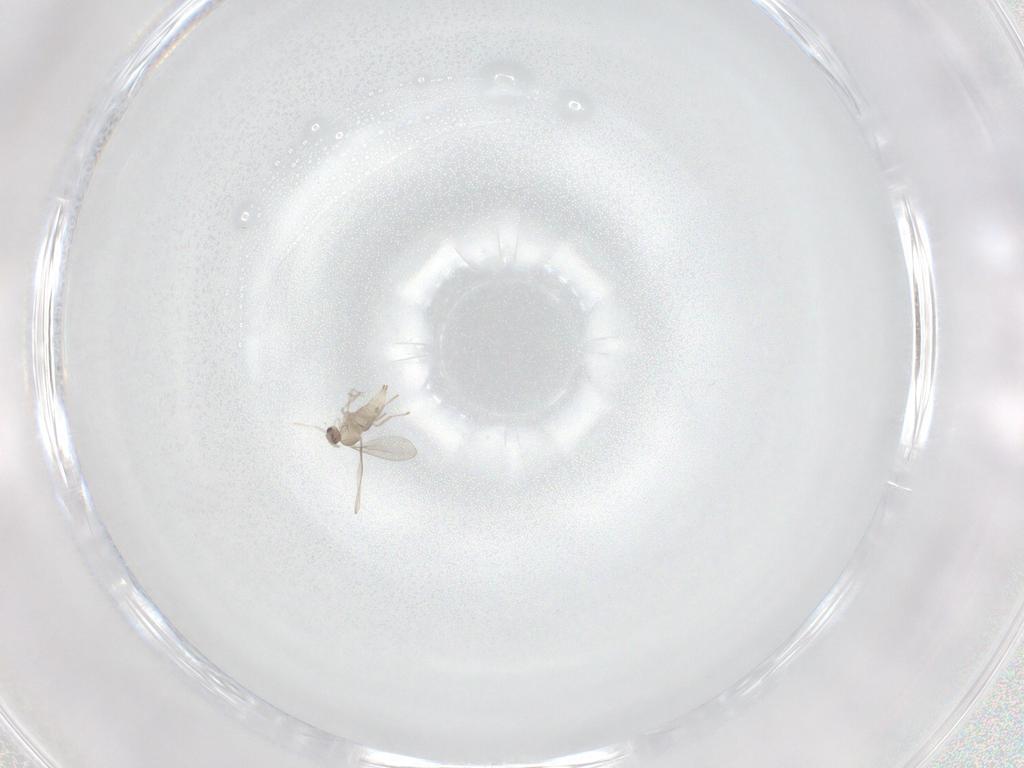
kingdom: Animalia
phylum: Arthropoda
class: Insecta
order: Diptera
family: Cecidomyiidae
